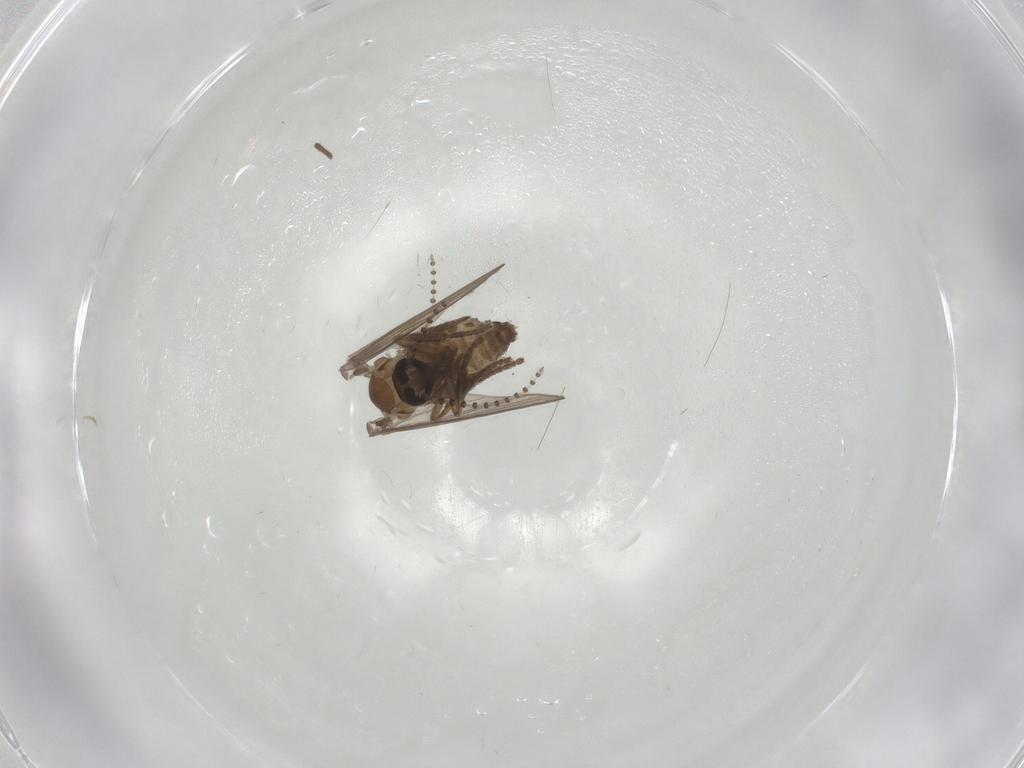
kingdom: Animalia
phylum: Arthropoda
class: Insecta
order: Diptera
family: Psychodidae
